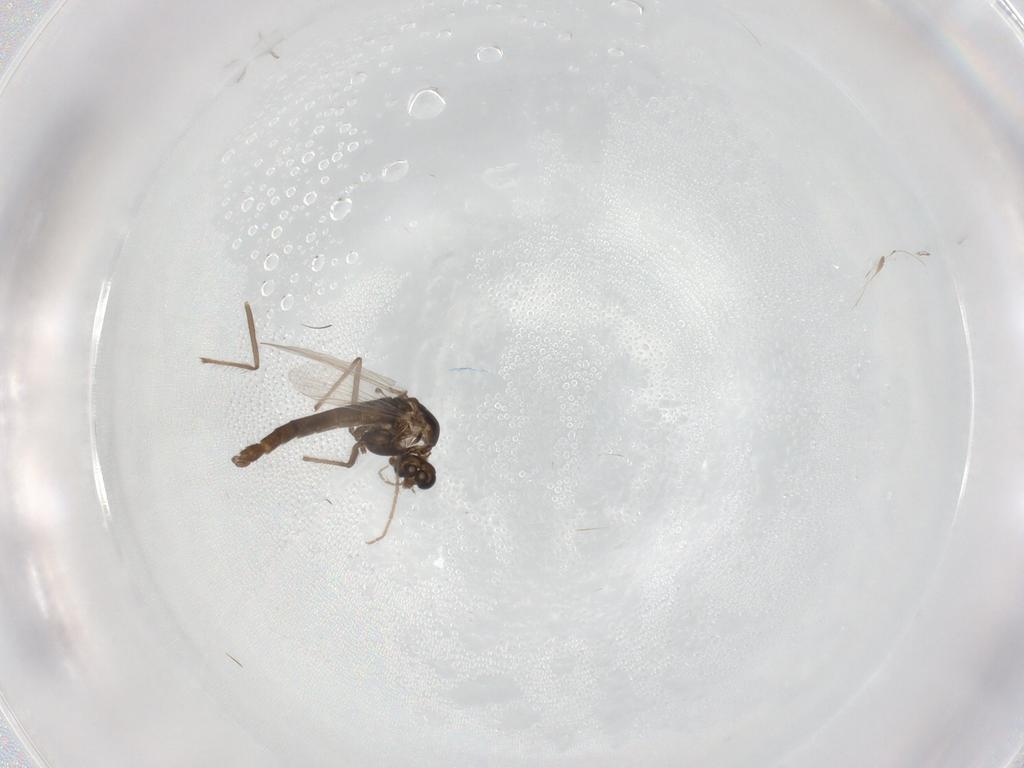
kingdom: Animalia
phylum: Arthropoda
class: Insecta
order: Diptera
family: Chironomidae
